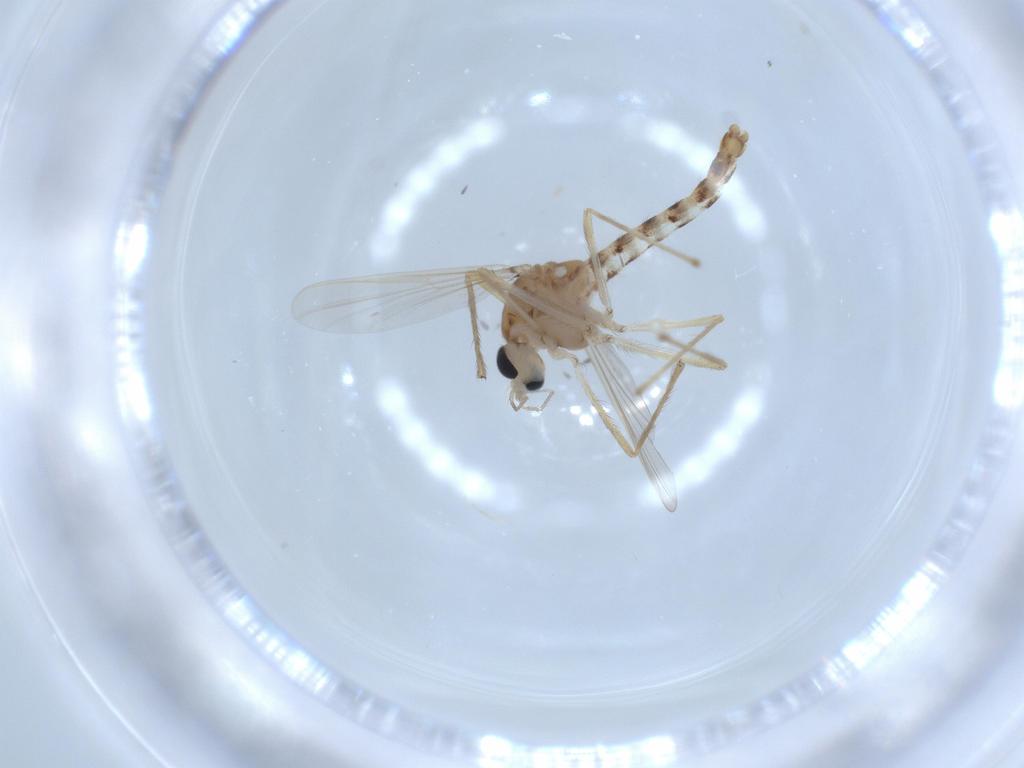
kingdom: Animalia
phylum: Arthropoda
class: Insecta
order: Diptera
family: Chironomidae
